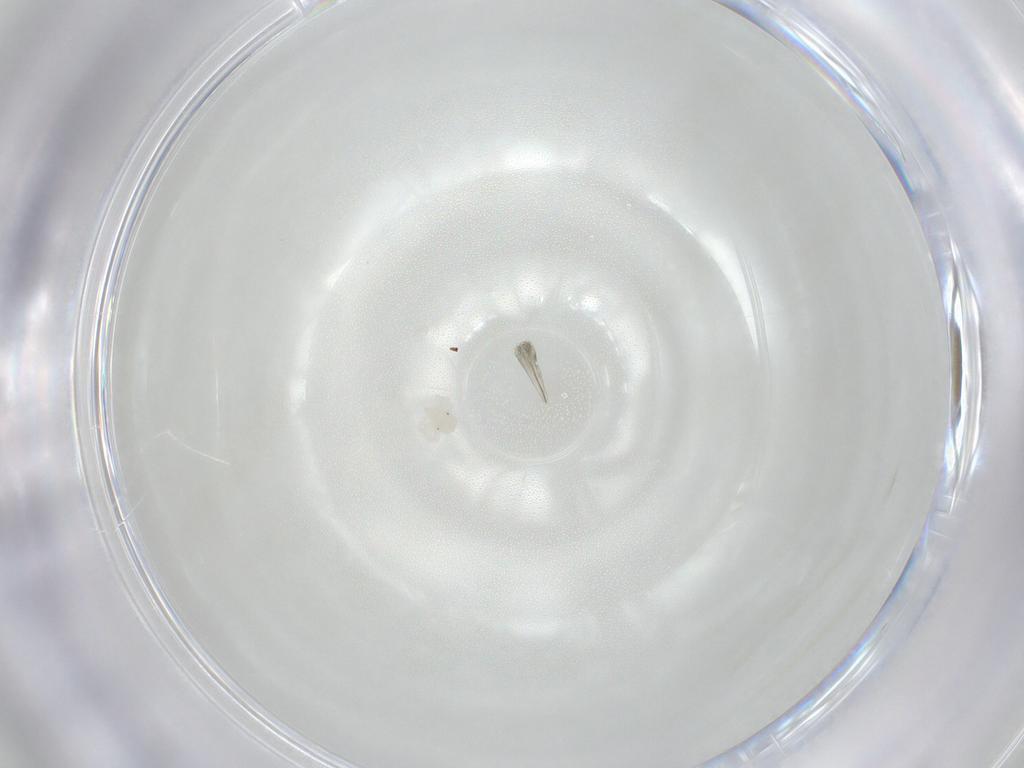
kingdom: Animalia
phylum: Arthropoda
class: Arachnida
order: Trombidiformes
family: Anystidae
